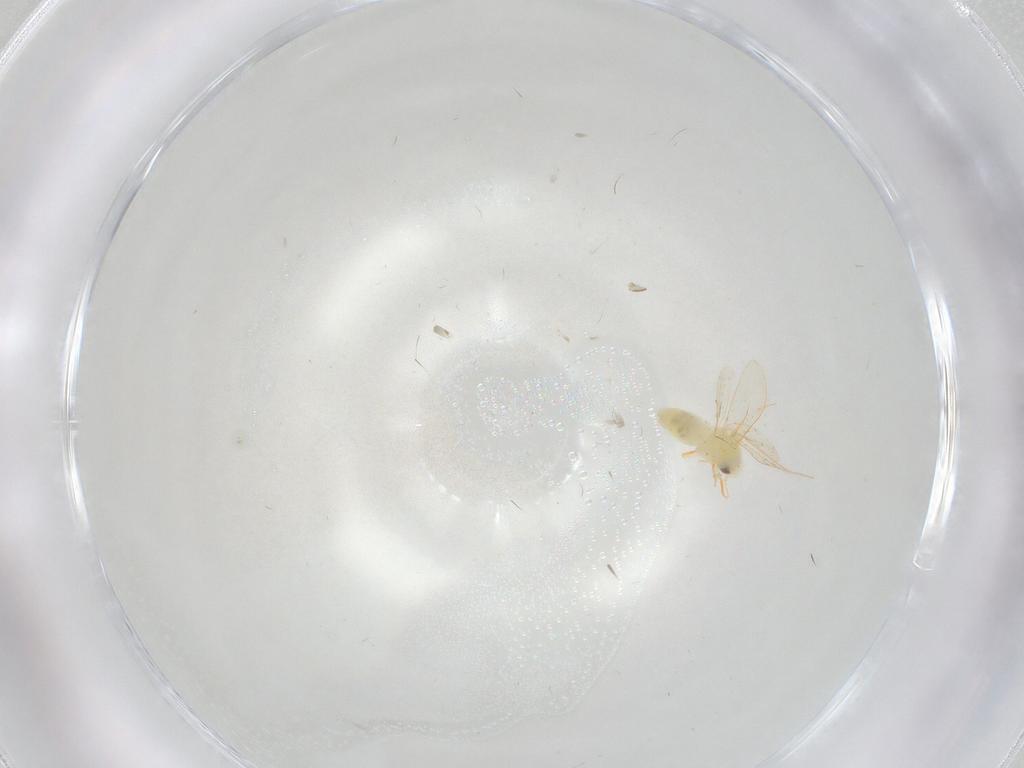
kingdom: Animalia
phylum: Arthropoda
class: Insecta
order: Hemiptera
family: Aleyrodidae
